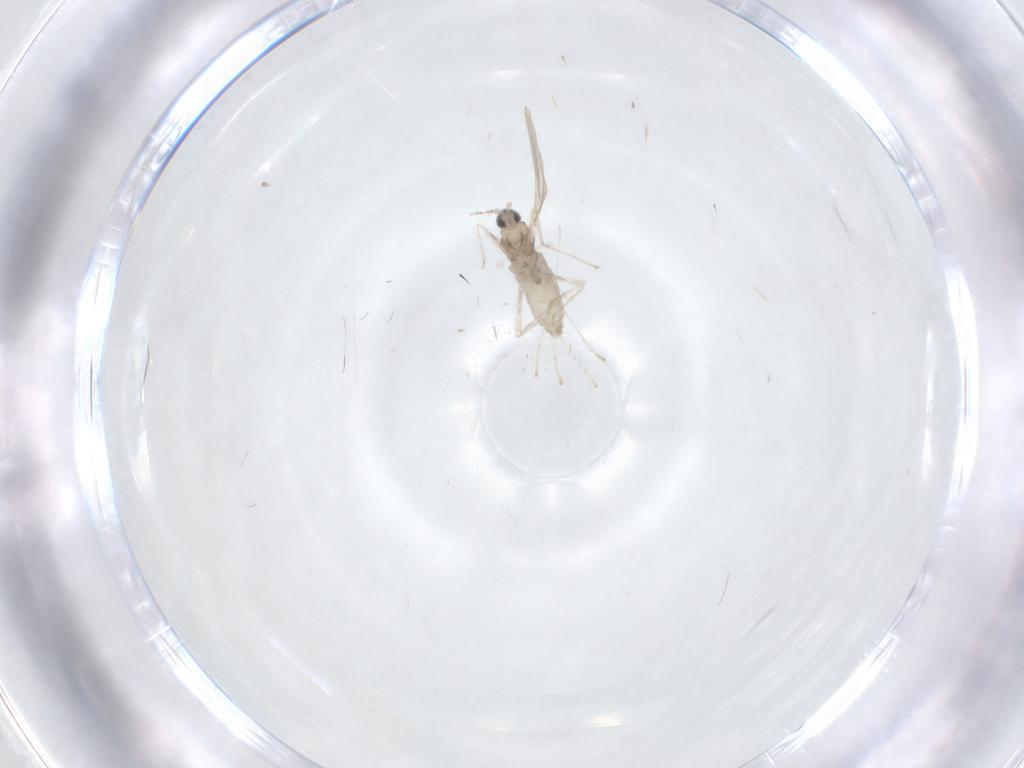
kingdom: Animalia
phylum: Arthropoda
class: Insecta
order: Diptera
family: Cecidomyiidae
